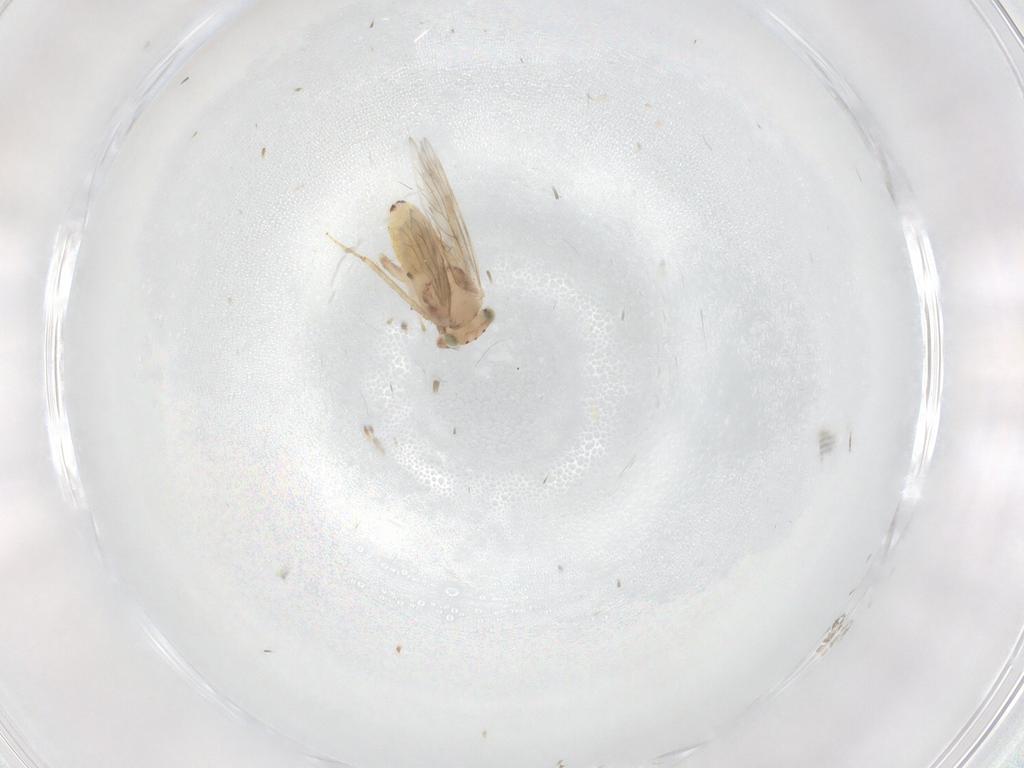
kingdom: Animalia
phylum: Arthropoda
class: Insecta
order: Psocodea
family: Lepidopsocidae
